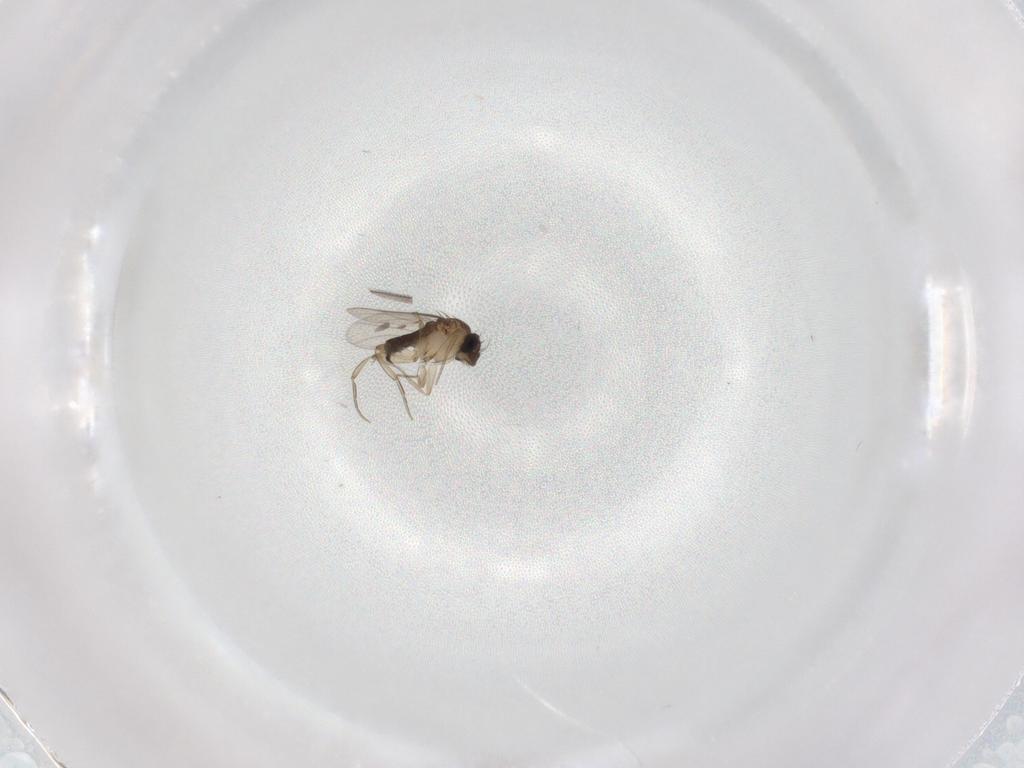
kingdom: Animalia
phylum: Arthropoda
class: Insecta
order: Diptera
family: Phoridae
